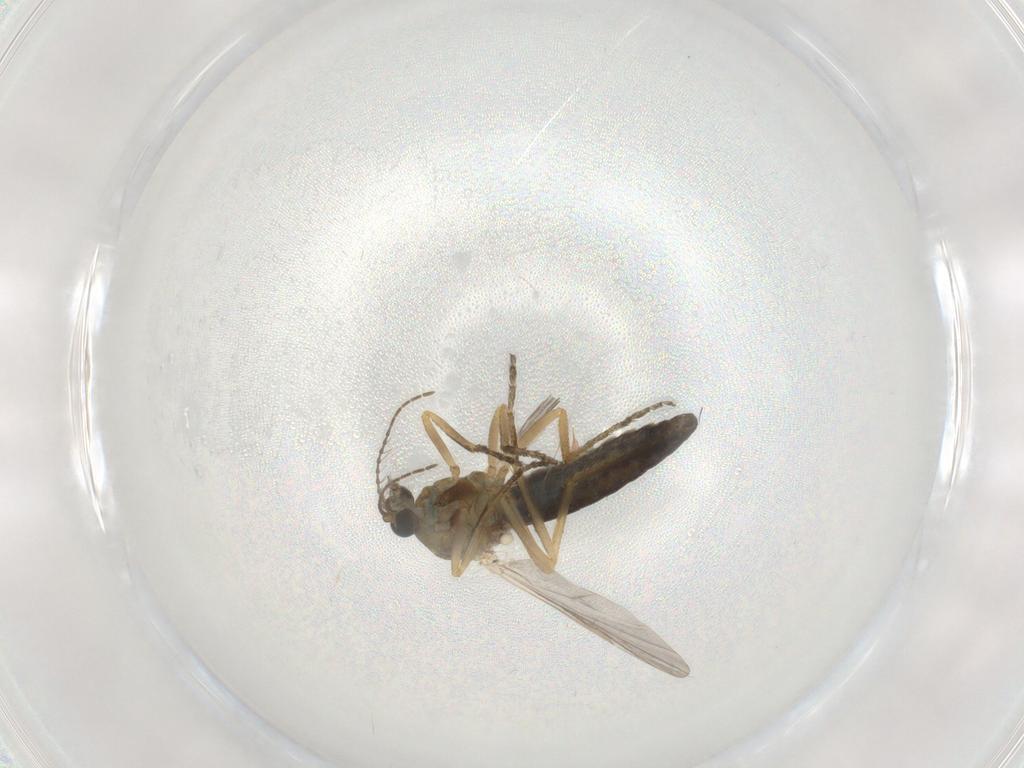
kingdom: Animalia
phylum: Arthropoda
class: Insecta
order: Diptera
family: Ceratopogonidae
